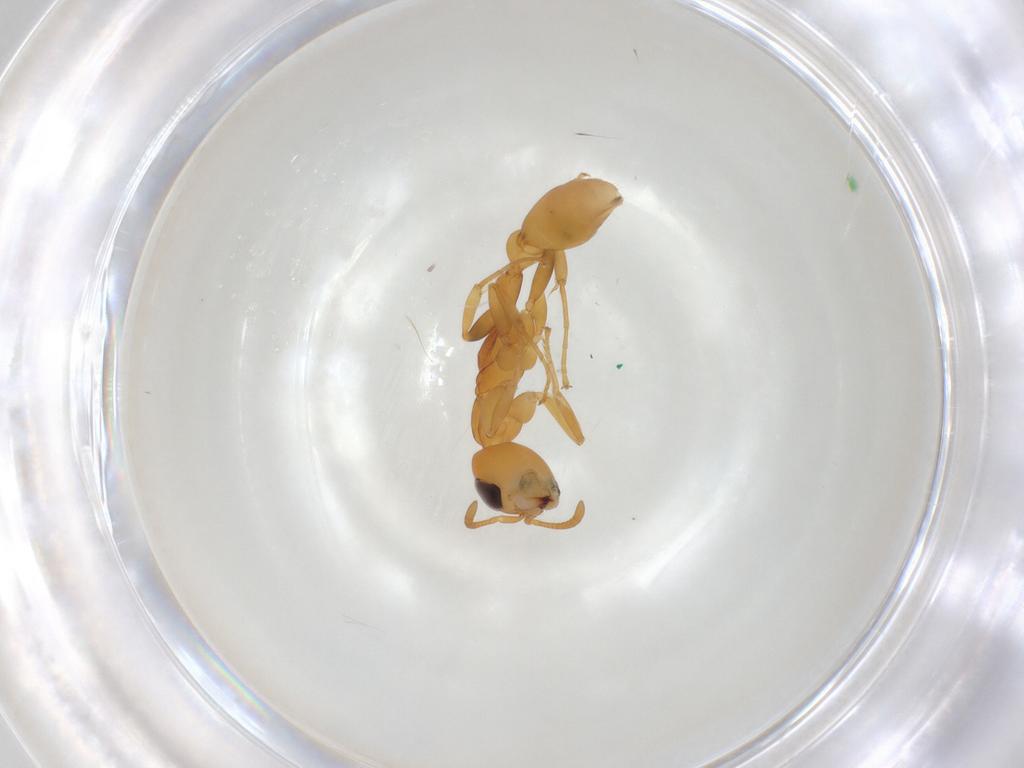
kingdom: Animalia
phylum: Arthropoda
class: Insecta
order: Hymenoptera
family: Formicidae
